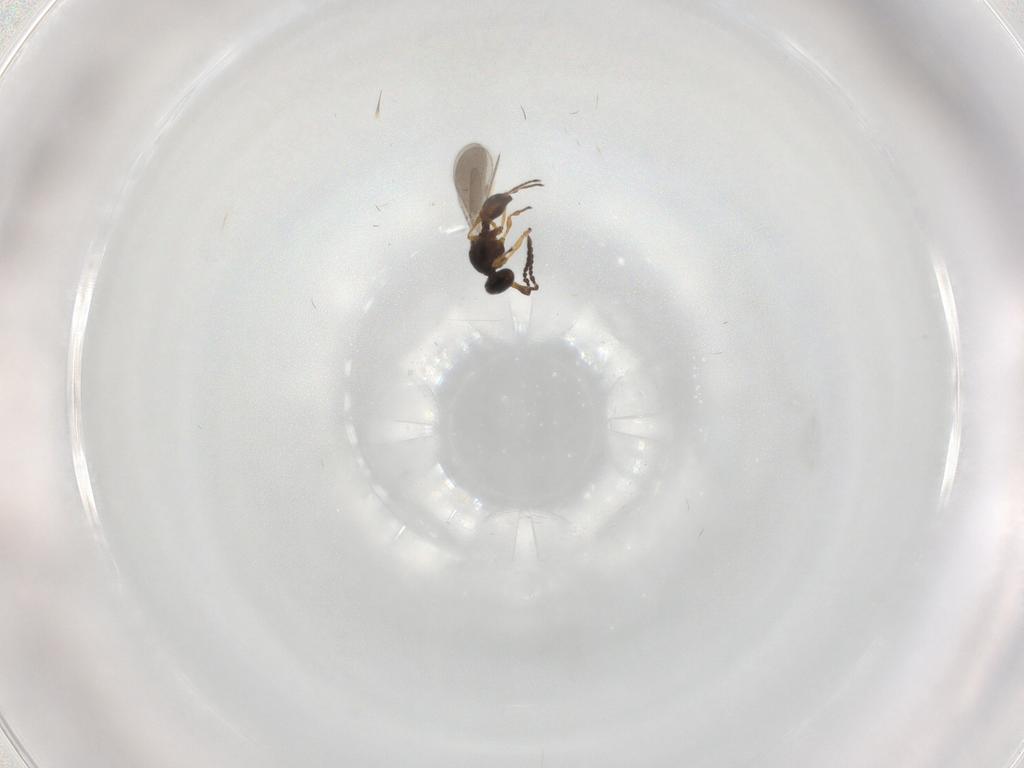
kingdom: Animalia
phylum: Arthropoda
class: Insecta
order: Hymenoptera
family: Platygastridae
